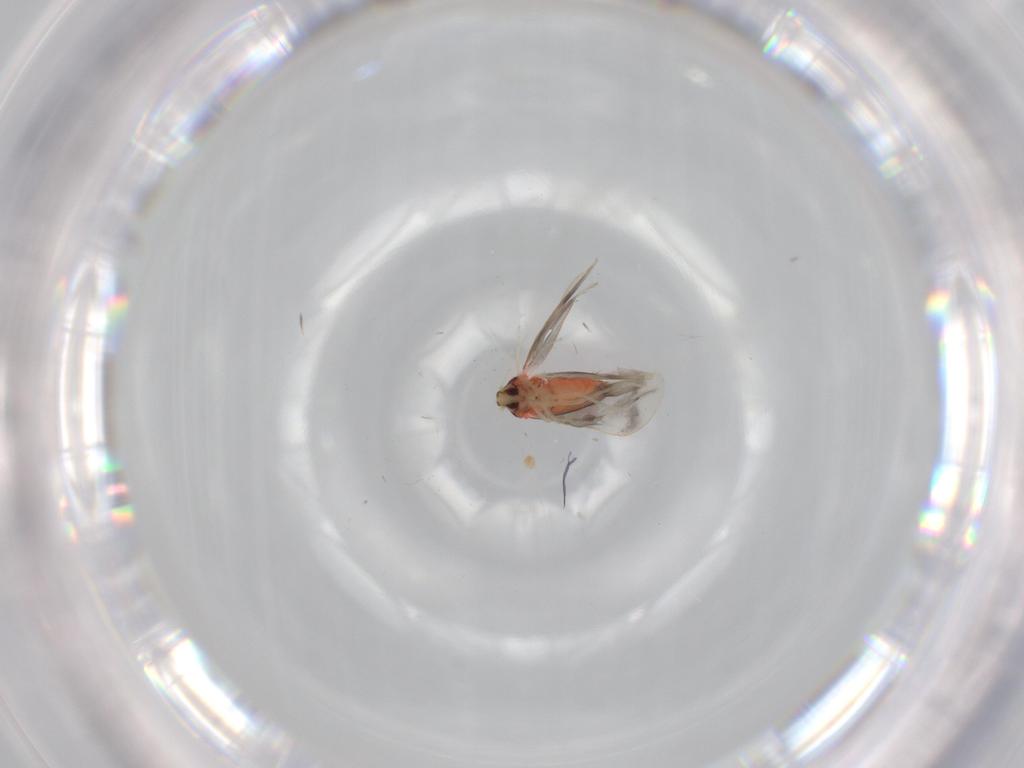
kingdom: Animalia
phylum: Arthropoda
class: Insecta
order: Hemiptera
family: Aleyrodidae
